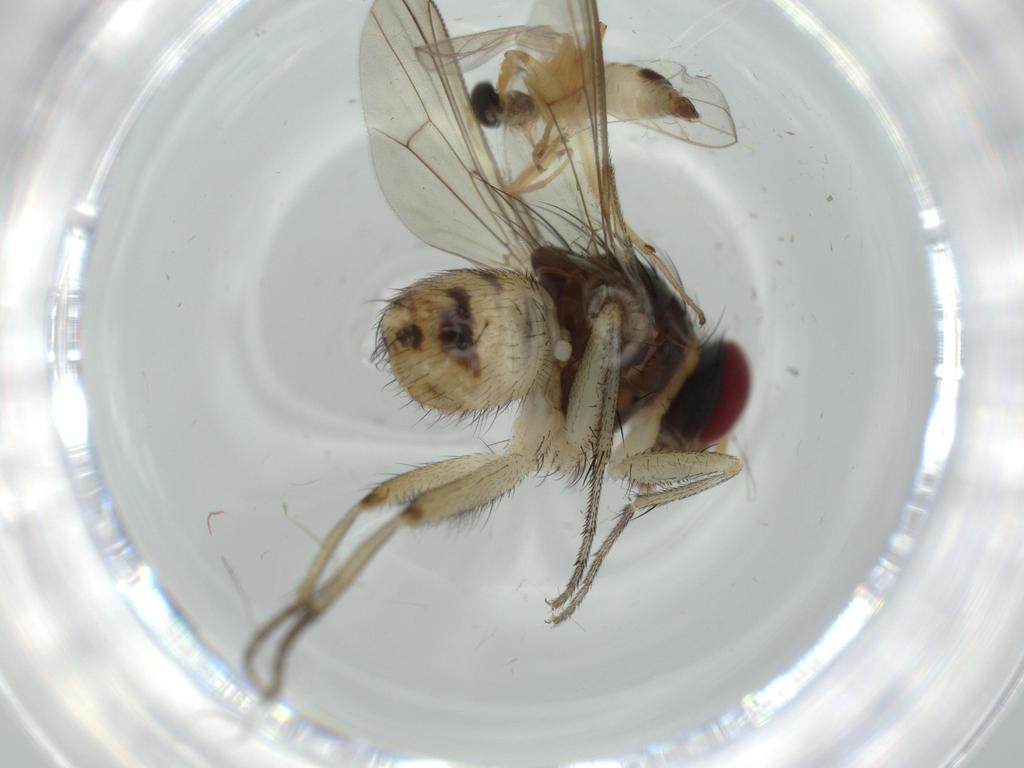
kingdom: Animalia
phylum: Arthropoda
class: Insecta
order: Diptera
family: Muscidae
